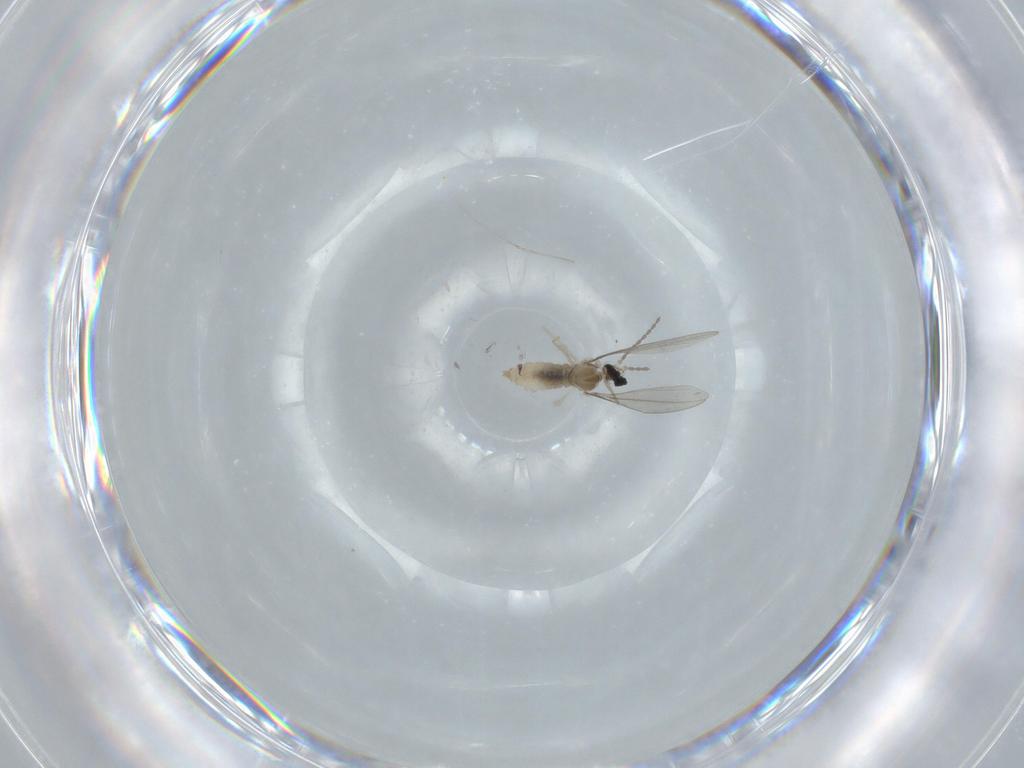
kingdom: Animalia
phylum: Arthropoda
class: Insecta
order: Diptera
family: Cecidomyiidae
